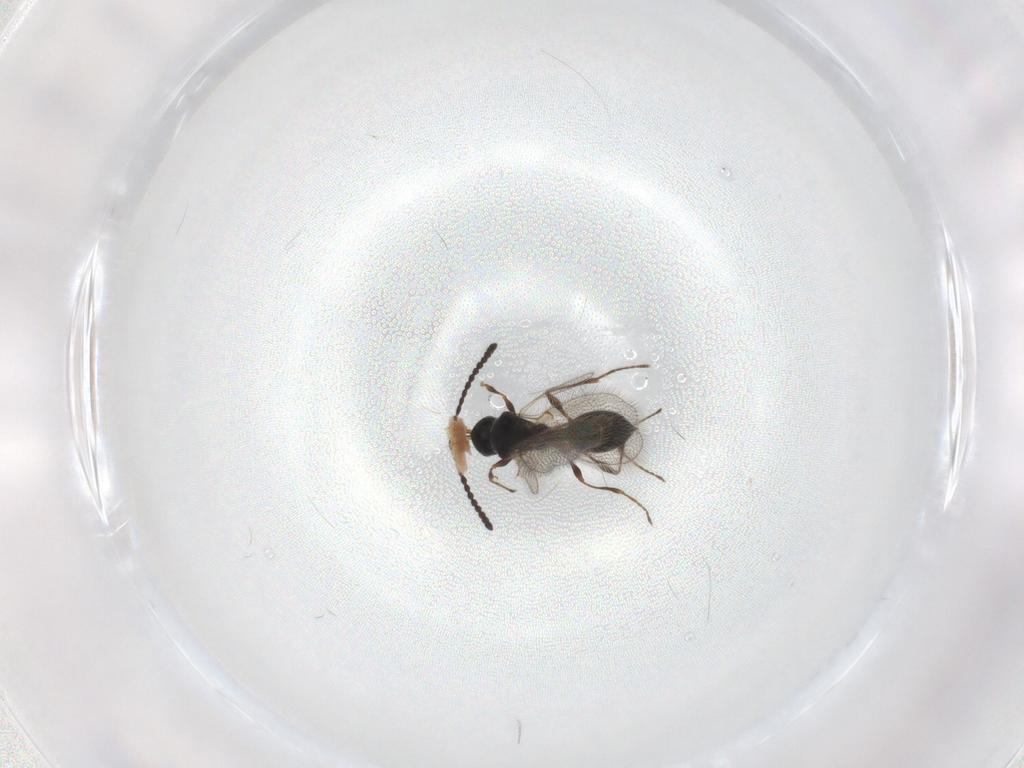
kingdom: Animalia
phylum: Arthropoda
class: Insecta
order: Hymenoptera
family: Diapriidae
